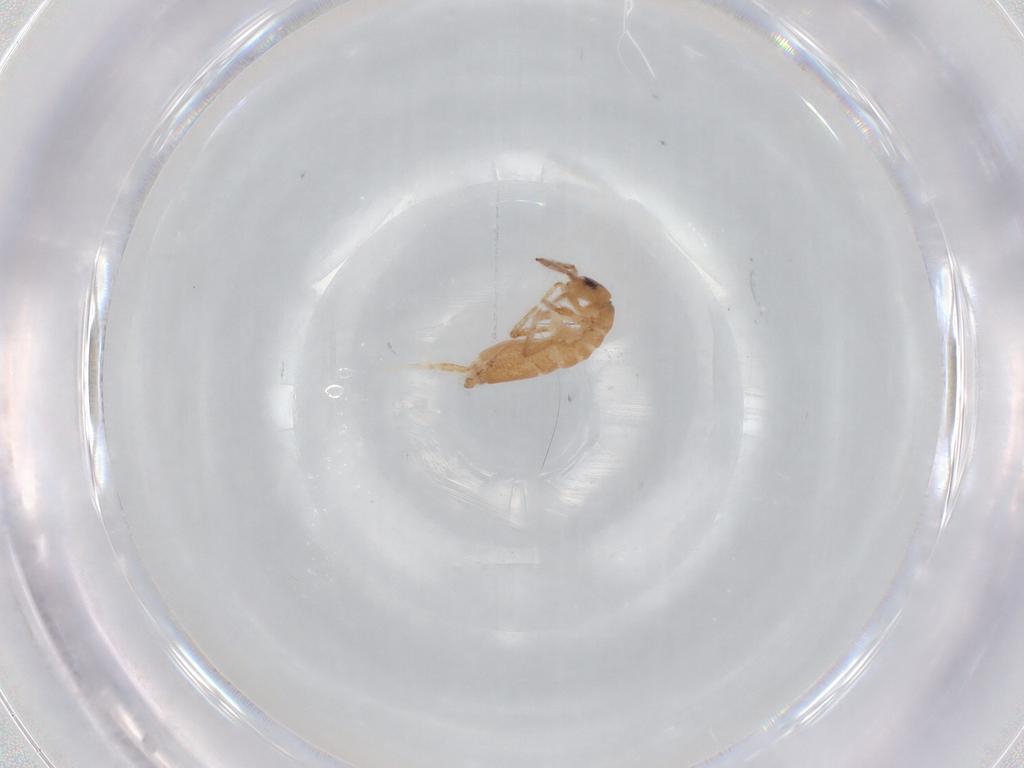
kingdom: Animalia
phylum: Arthropoda
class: Collembola
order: Entomobryomorpha
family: Entomobryidae
